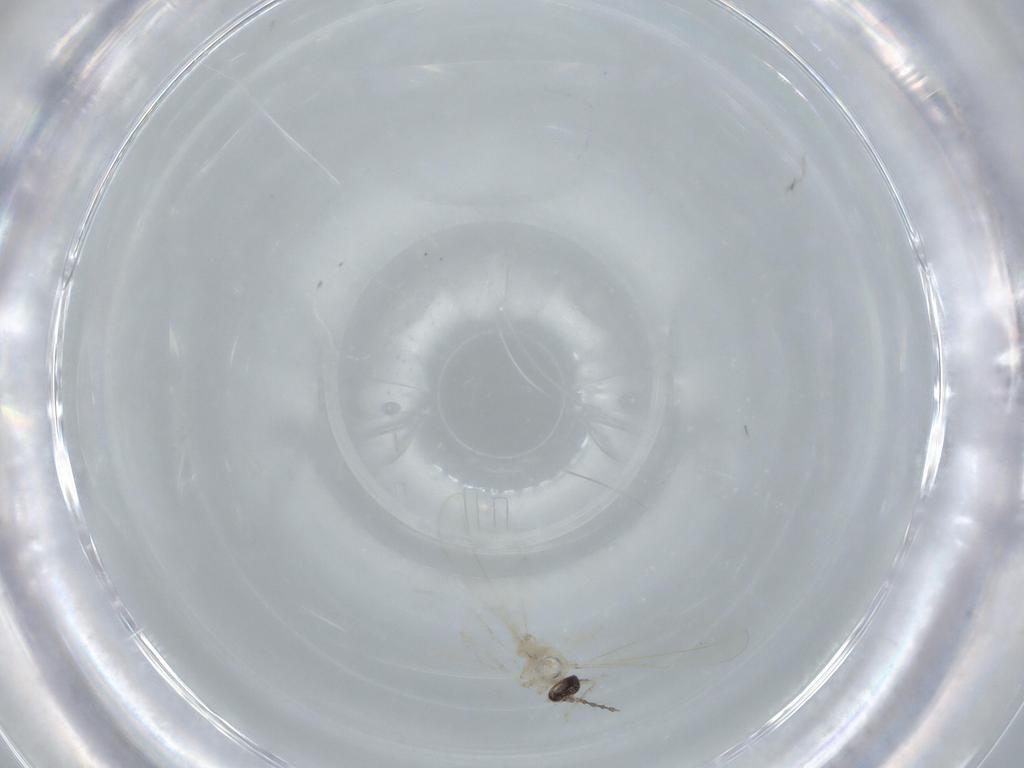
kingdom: Animalia
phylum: Arthropoda
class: Insecta
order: Diptera
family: Cecidomyiidae
